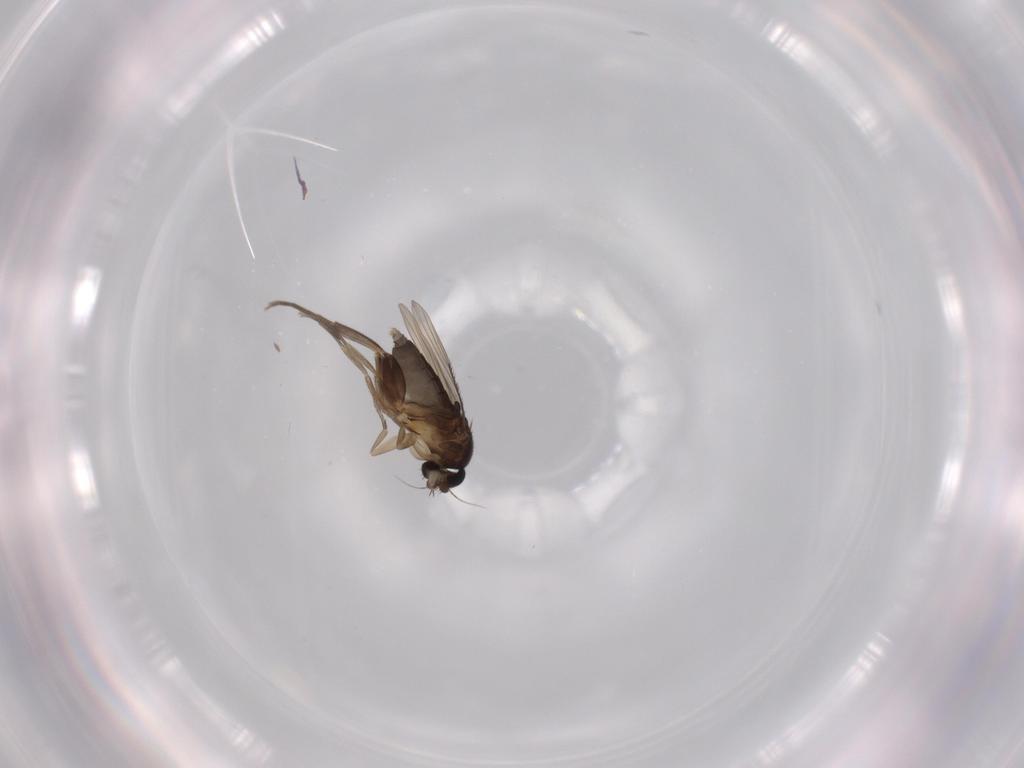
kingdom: Animalia
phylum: Arthropoda
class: Insecta
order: Diptera
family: Phoridae
